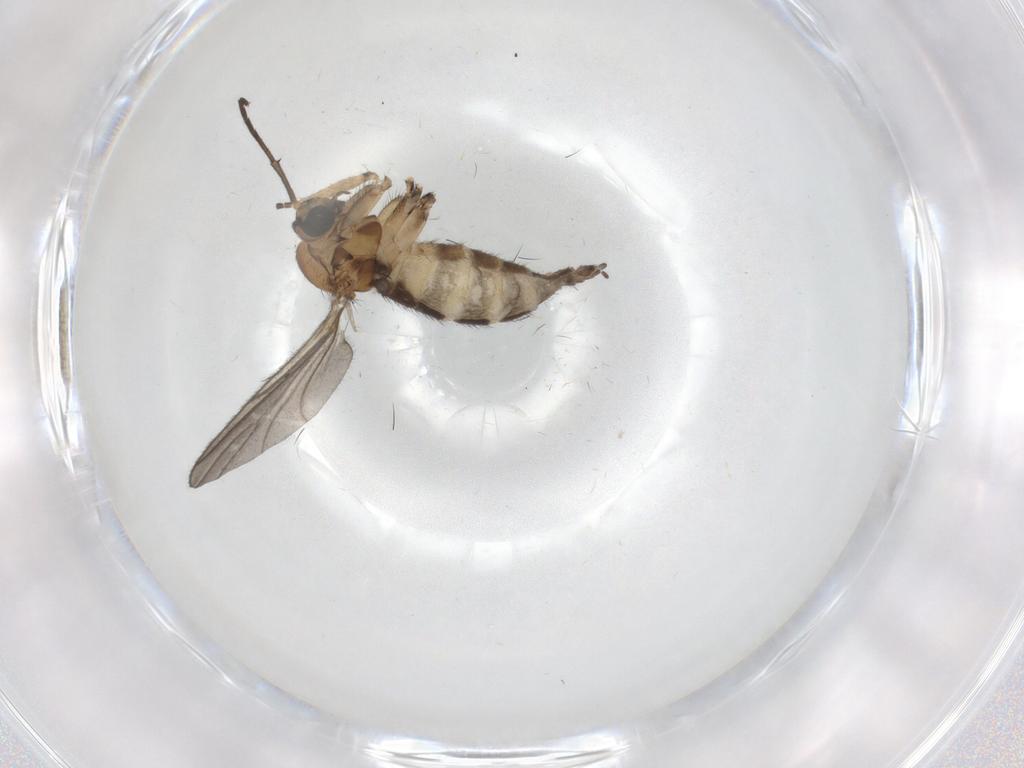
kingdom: Animalia
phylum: Arthropoda
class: Insecta
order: Diptera
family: Sciaridae
